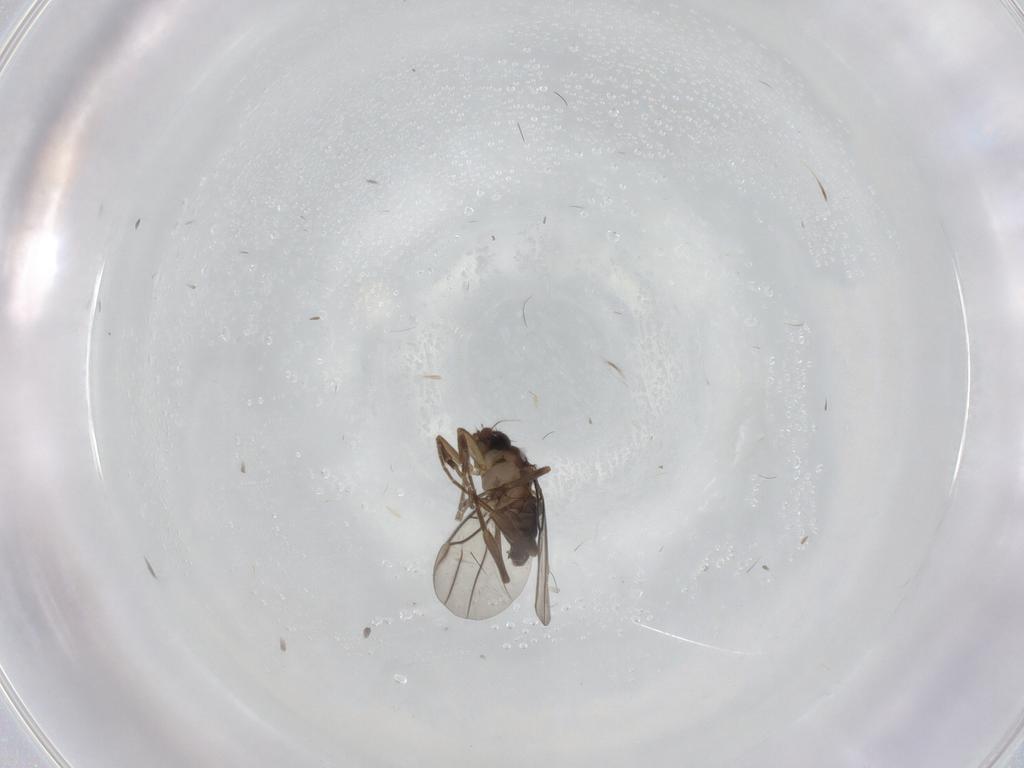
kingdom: Animalia
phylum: Arthropoda
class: Insecta
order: Diptera
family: Phoridae
